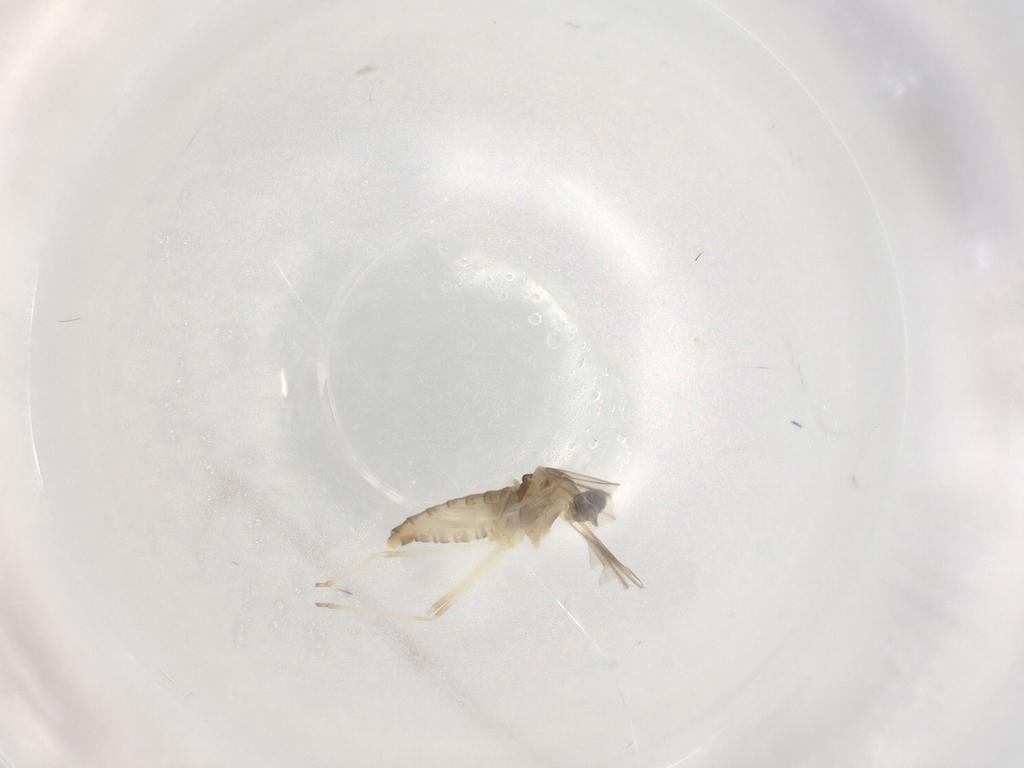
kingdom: Animalia
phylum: Arthropoda
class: Insecta
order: Diptera
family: Cecidomyiidae
